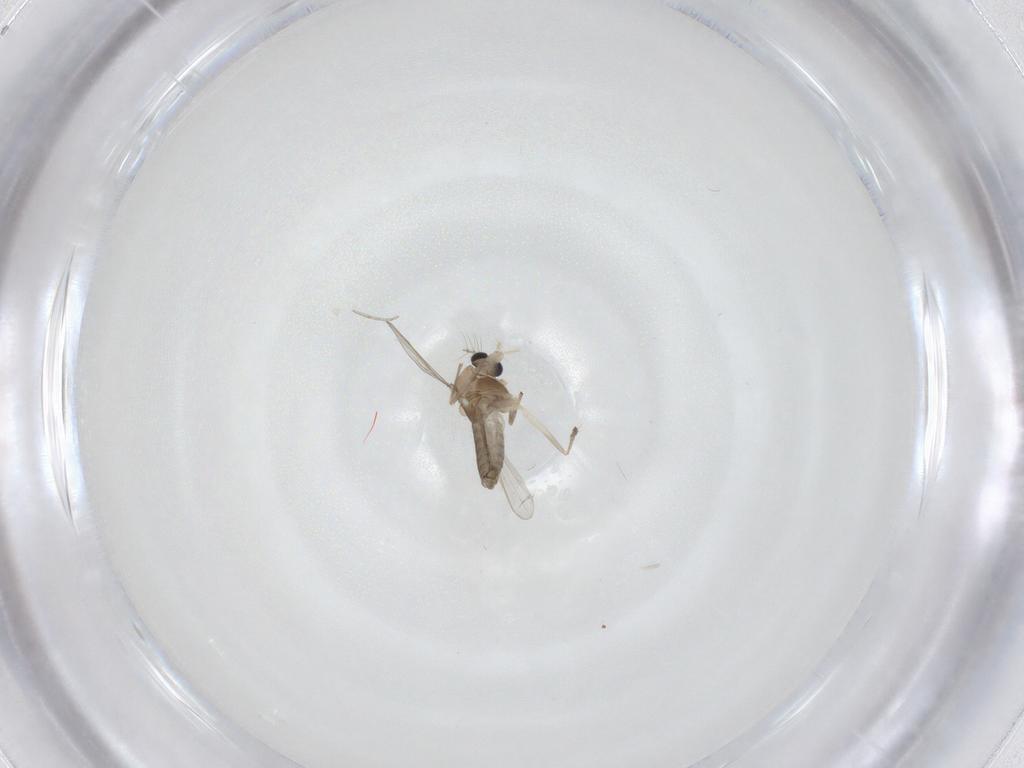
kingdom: Animalia
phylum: Arthropoda
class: Insecta
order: Diptera
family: Chironomidae
